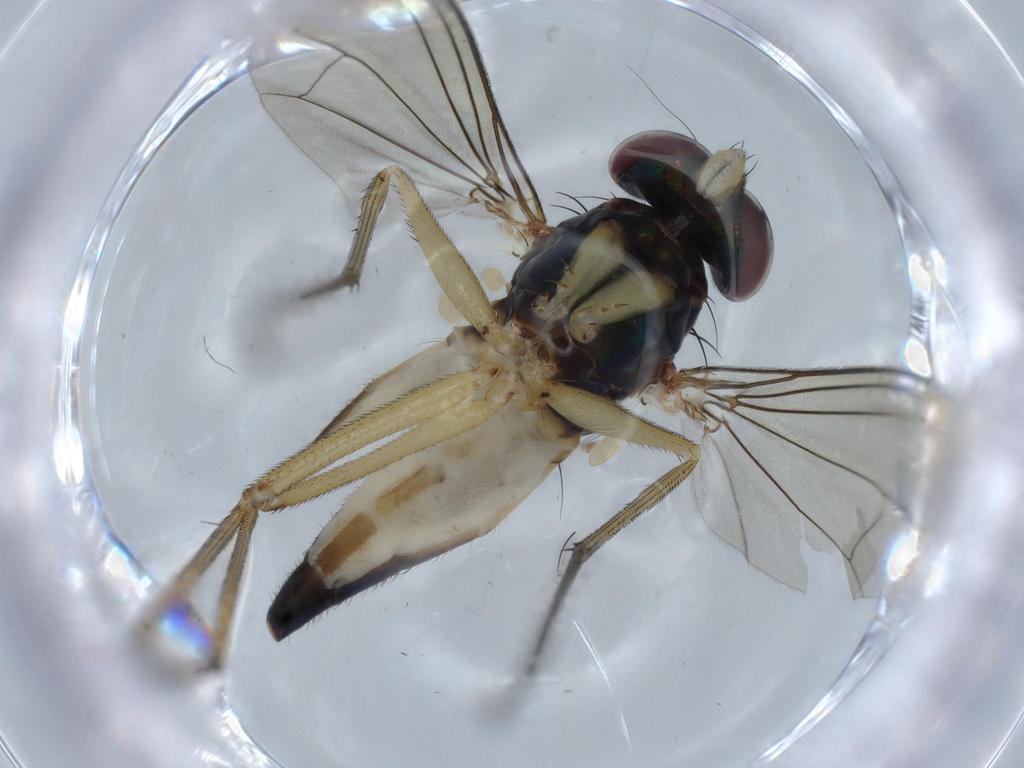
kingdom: Animalia
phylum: Arthropoda
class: Insecta
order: Diptera
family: Dolichopodidae
